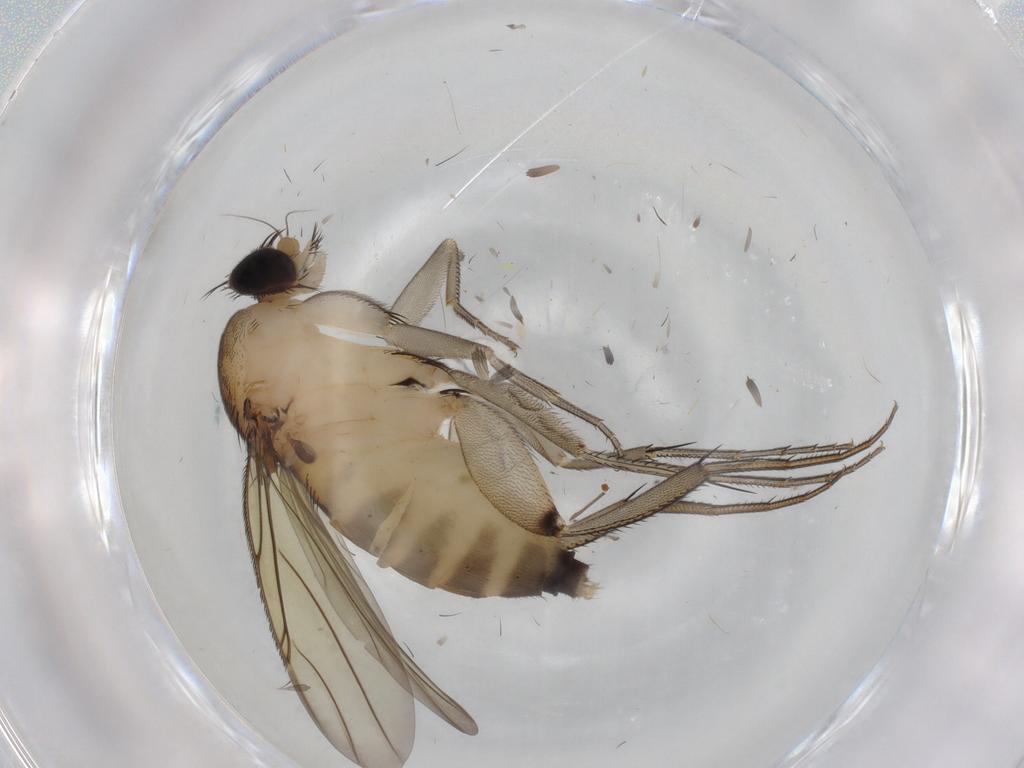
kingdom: Animalia
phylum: Arthropoda
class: Insecta
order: Diptera
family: Phoridae
